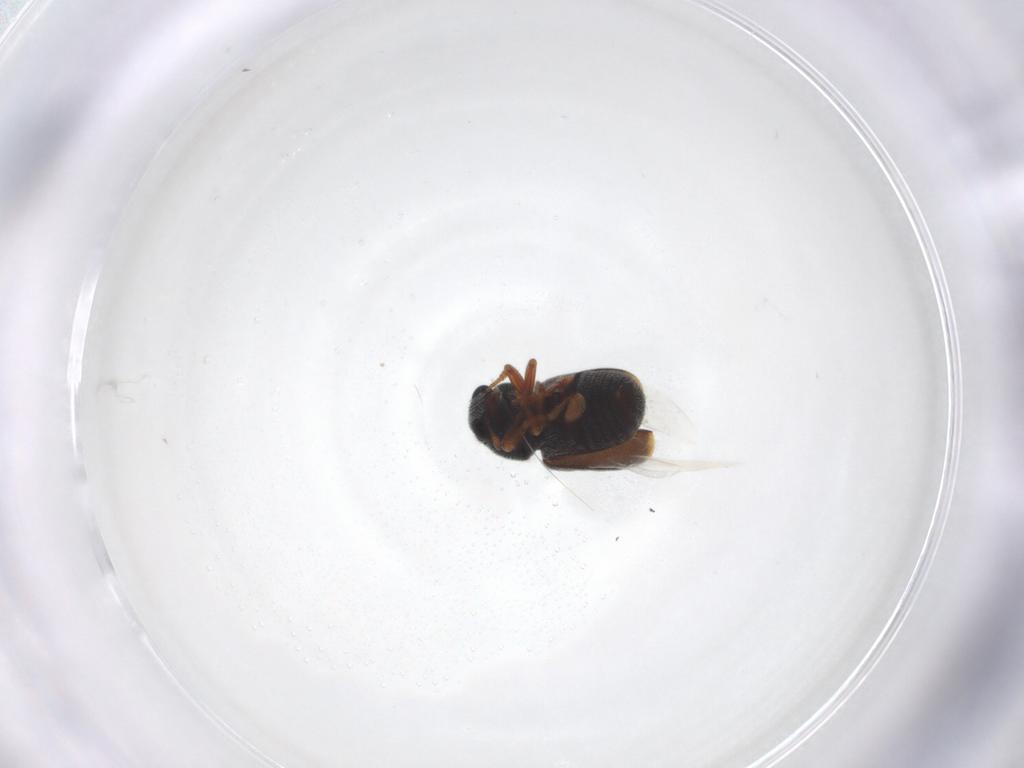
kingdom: Animalia
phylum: Arthropoda
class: Insecta
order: Coleoptera
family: Anthribidae
